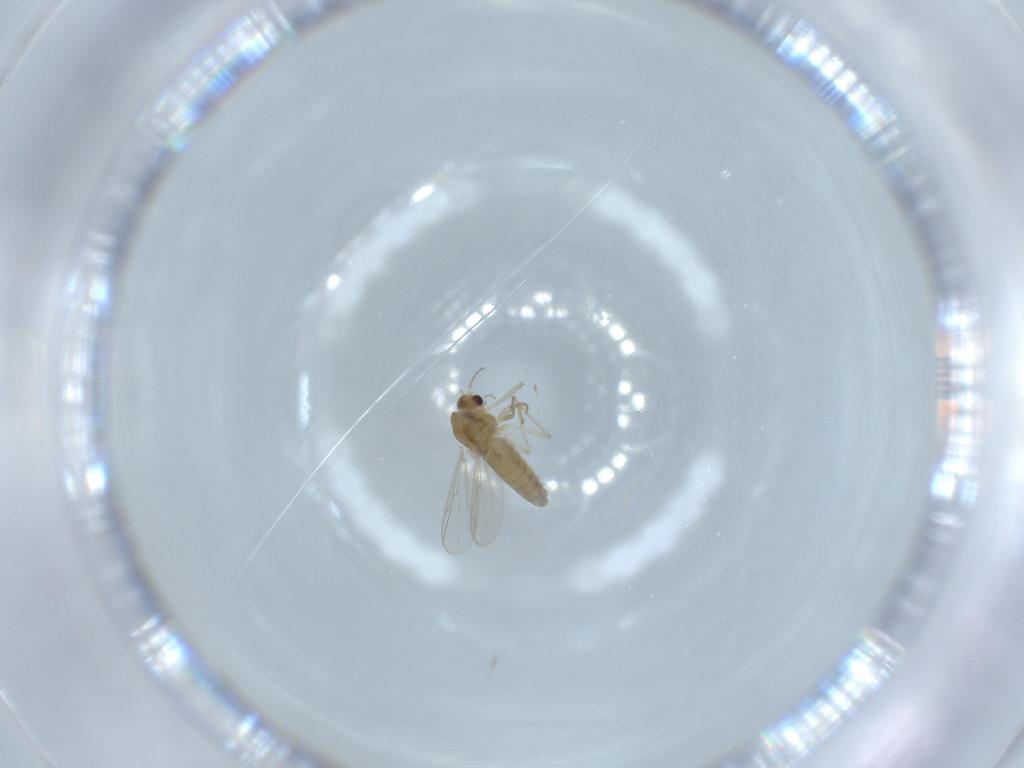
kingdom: Animalia
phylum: Arthropoda
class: Insecta
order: Diptera
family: Chironomidae
